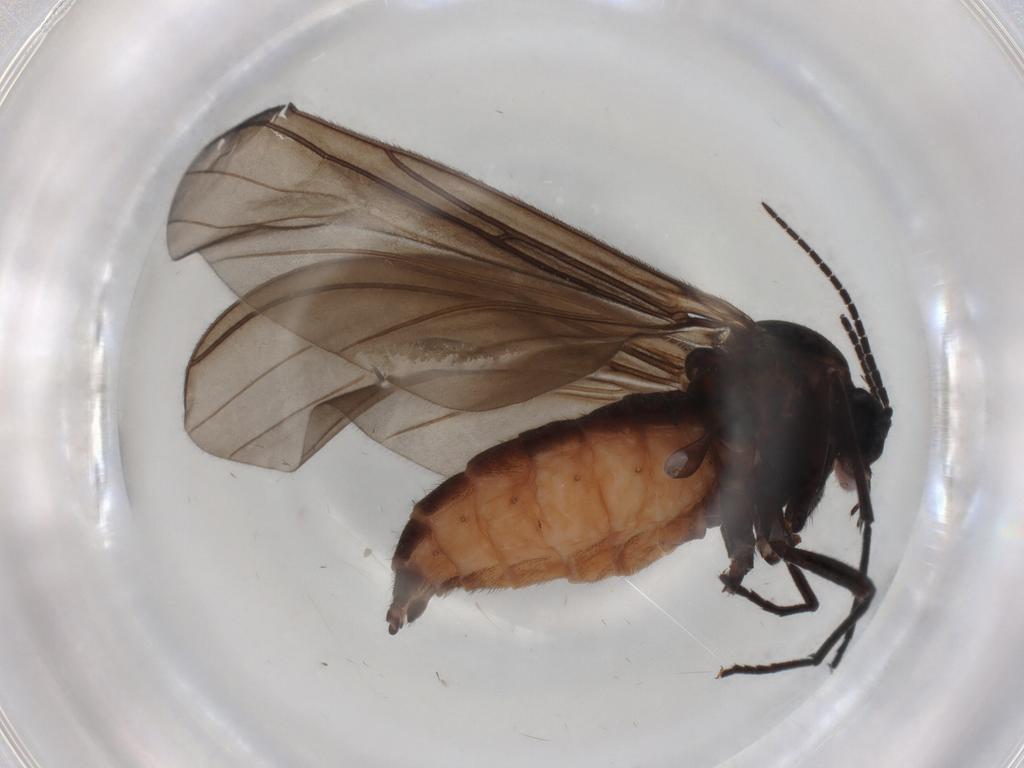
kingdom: Animalia
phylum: Arthropoda
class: Insecta
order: Diptera
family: Sciaridae
